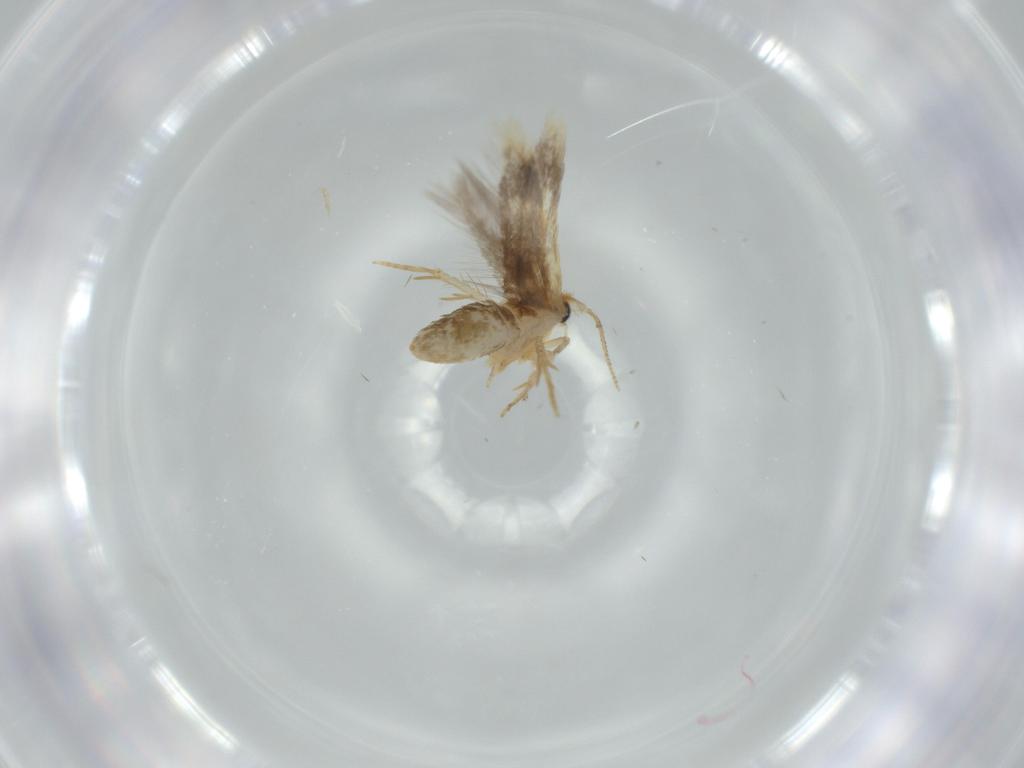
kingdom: Animalia
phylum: Arthropoda
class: Insecta
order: Lepidoptera
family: Nepticulidae
